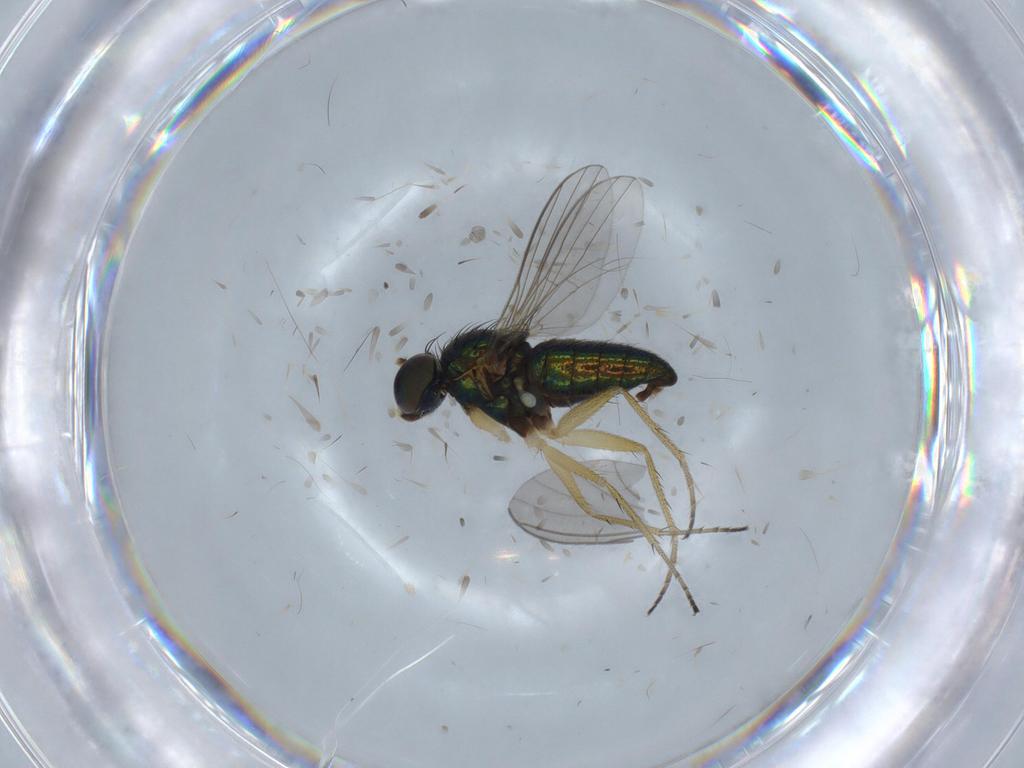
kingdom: Animalia
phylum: Arthropoda
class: Insecta
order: Diptera
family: Sciaridae
